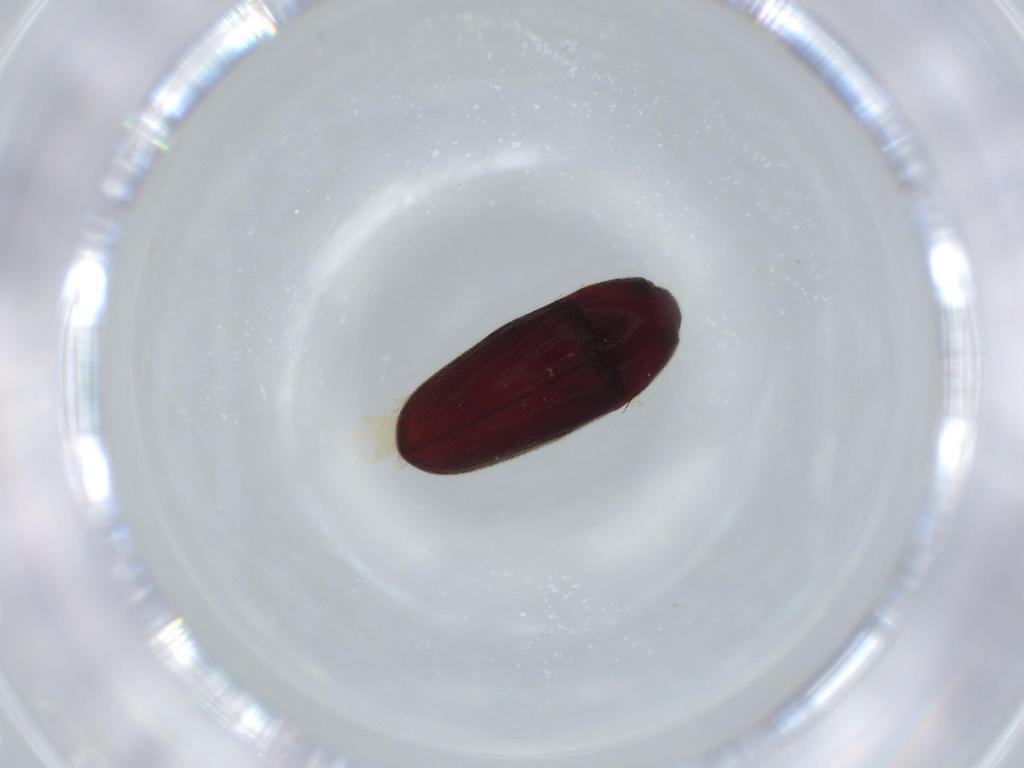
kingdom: Animalia
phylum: Arthropoda
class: Insecta
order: Coleoptera
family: Throscidae
